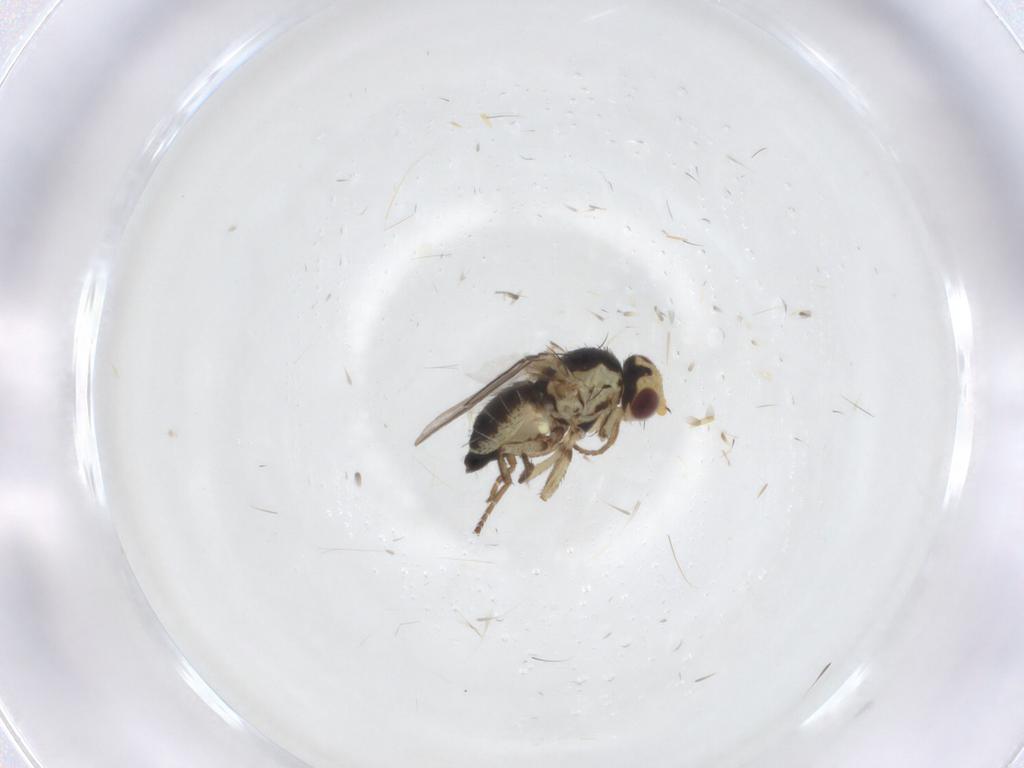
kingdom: Animalia
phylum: Arthropoda
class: Insecta
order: Diptera
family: Agromyzidae
